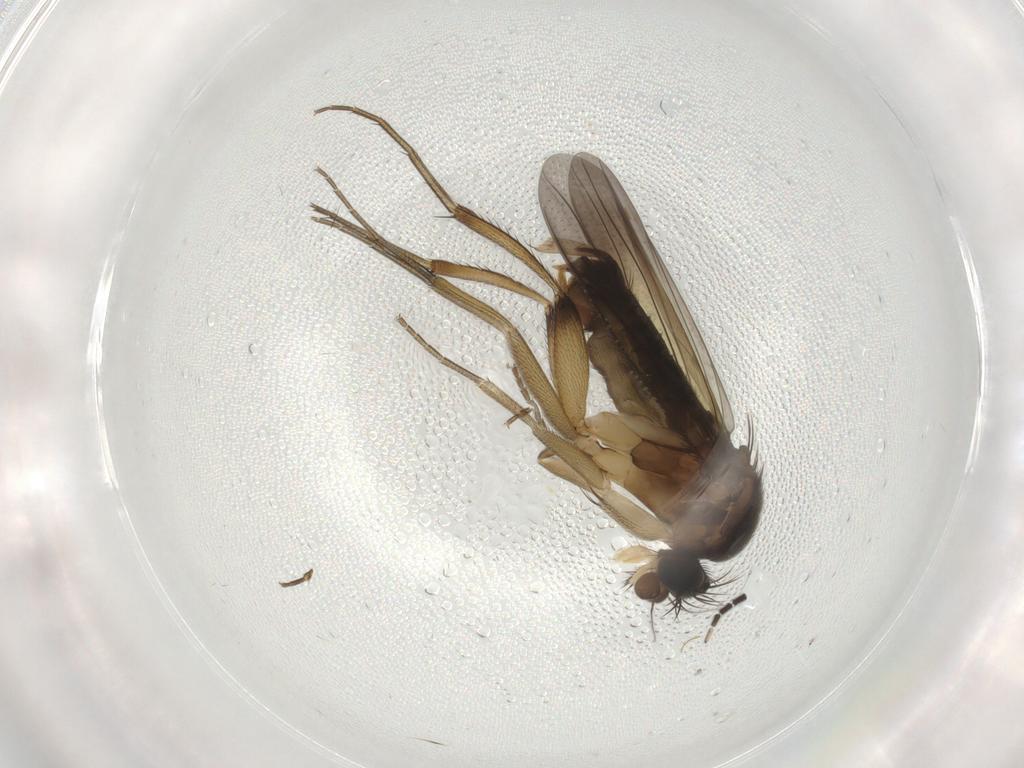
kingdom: Animalia
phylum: Arthropoda
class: Insecta
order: Diptera
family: Phoridae
